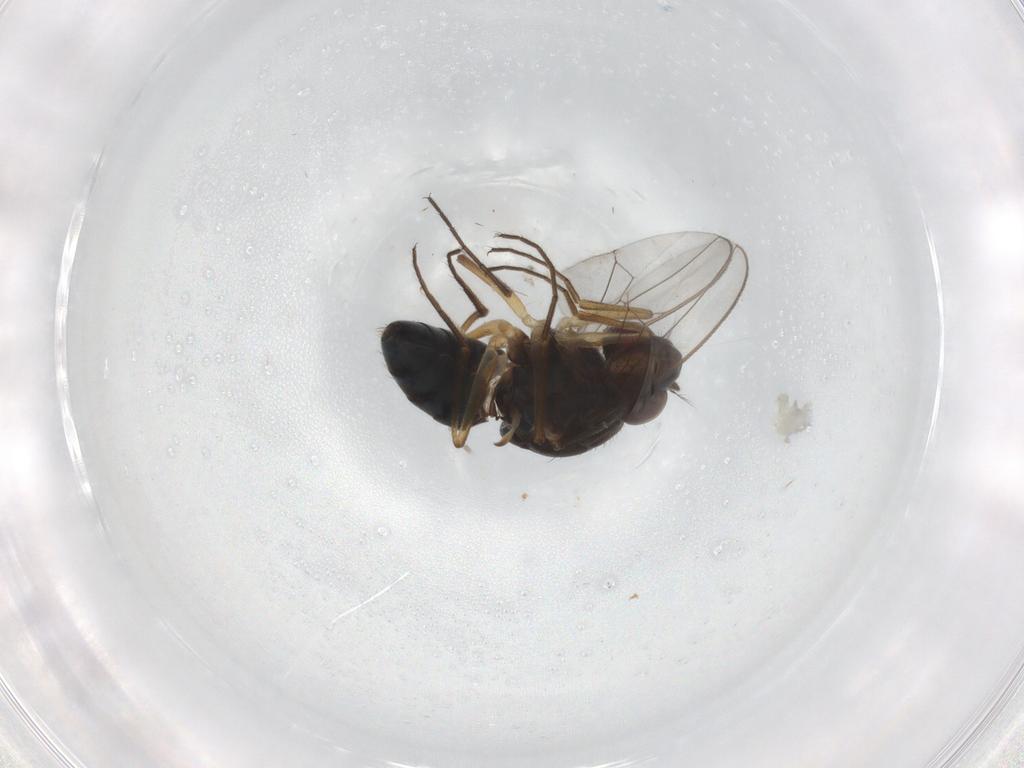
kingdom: Animalia
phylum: Arthropoda
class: Insecta
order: Diptera
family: Ephydridae
